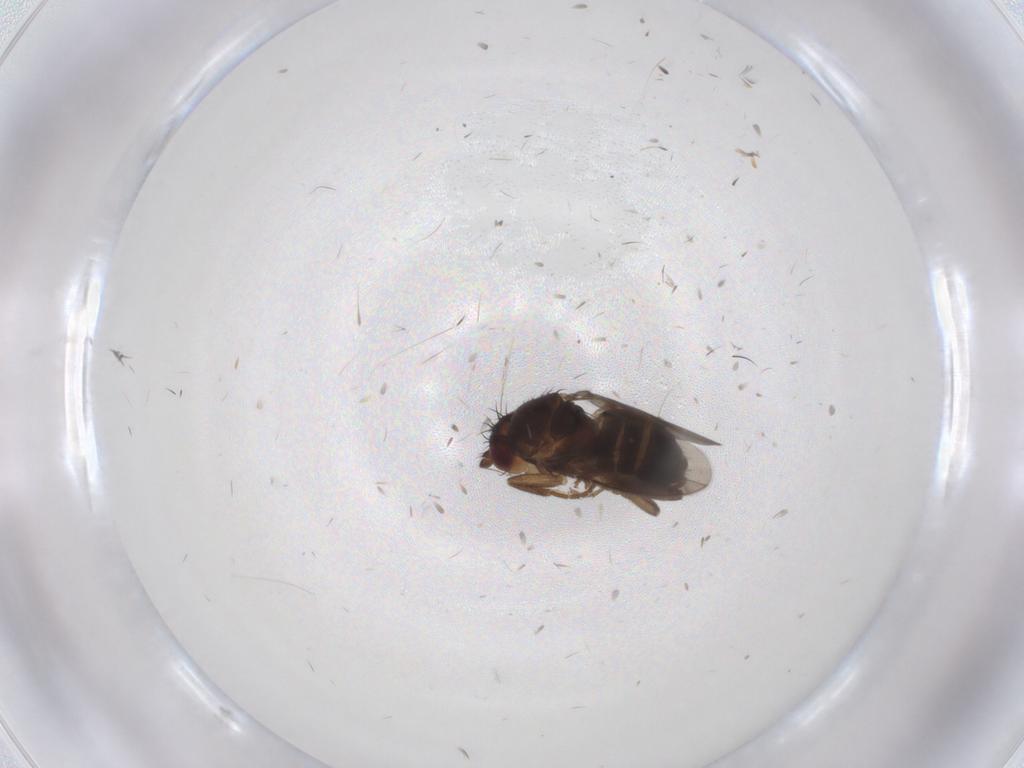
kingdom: Animalia
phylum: Arthropoda
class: Insecta
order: Diptera
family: Sphaeroceridae
